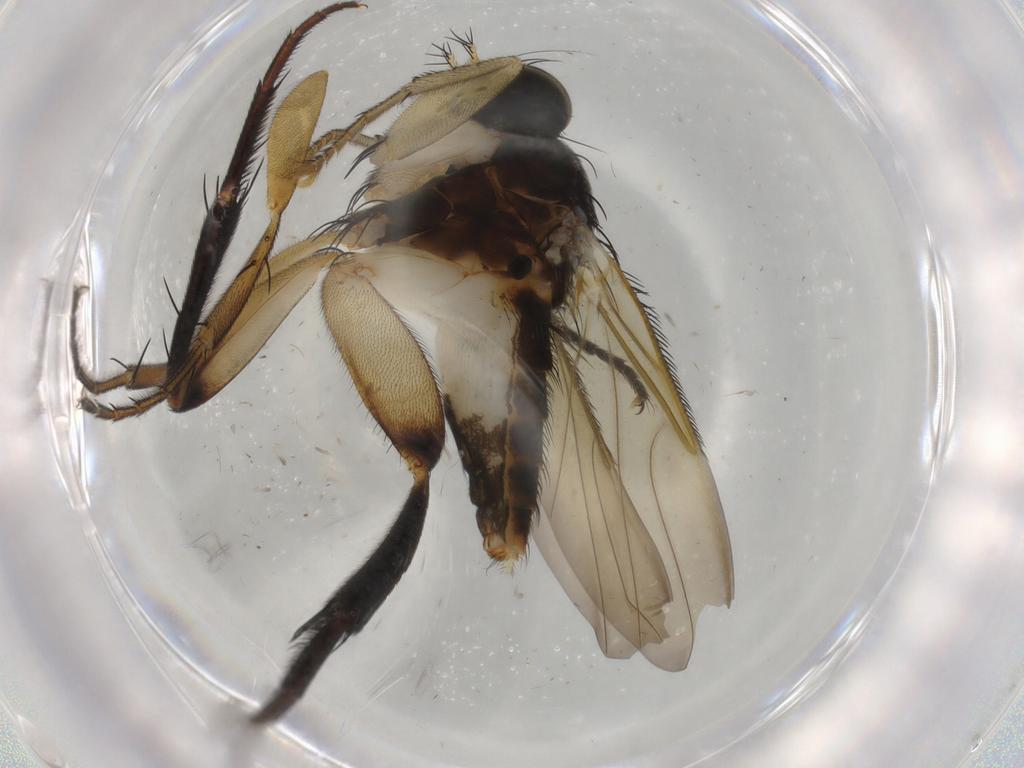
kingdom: Animalia
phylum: Arthropoda
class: Insecta
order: Diptera
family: Phoridae
